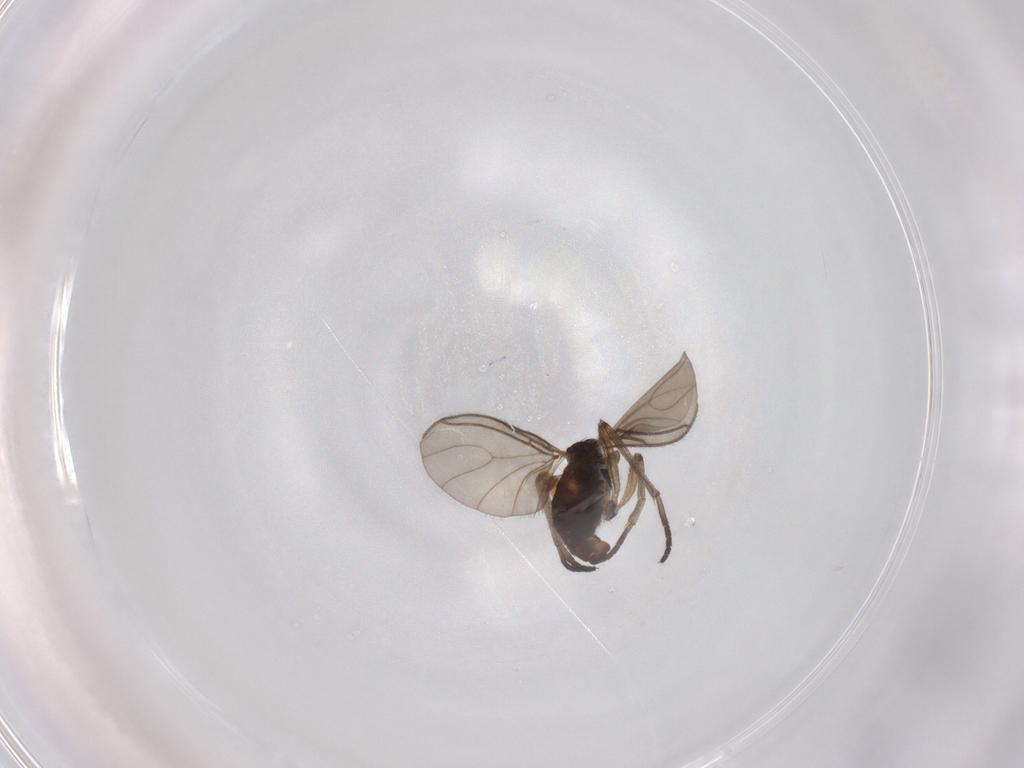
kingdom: Animalia
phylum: Arthropoda
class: Insecta
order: Diptera
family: Sciaridae
